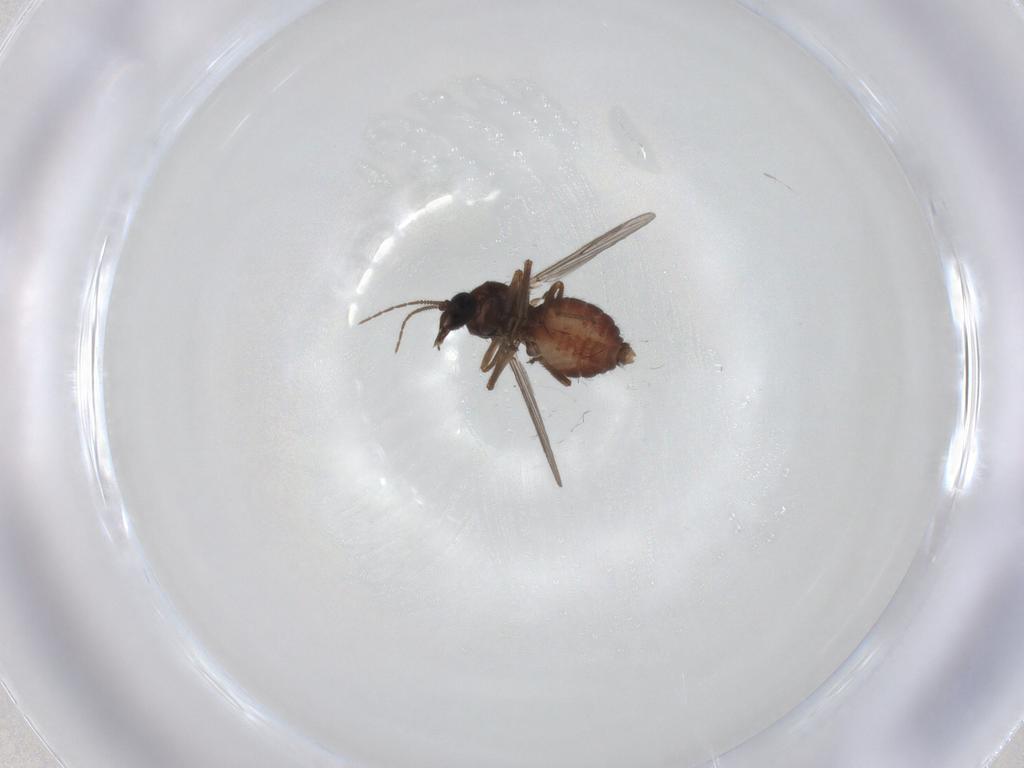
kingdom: Animalia
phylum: Arthropoda
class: Insecta
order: Diptera
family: Ceratopogonidae
